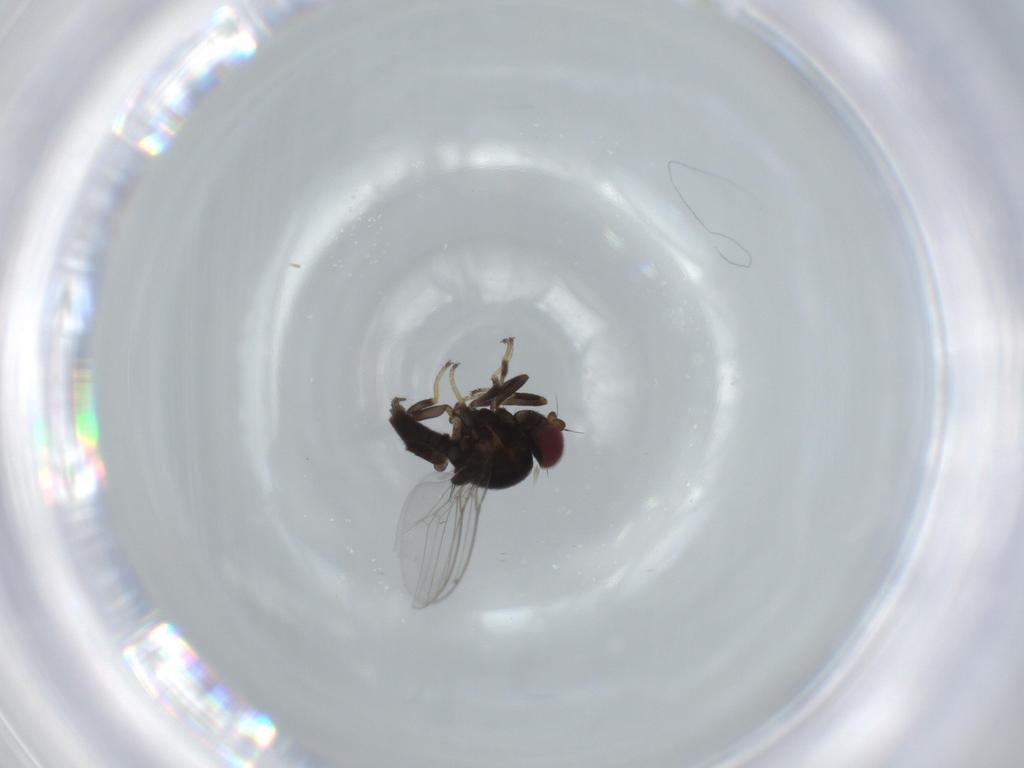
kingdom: Animalia
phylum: Arthropoda
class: Insecta
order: Diptera
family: Chloropidae
